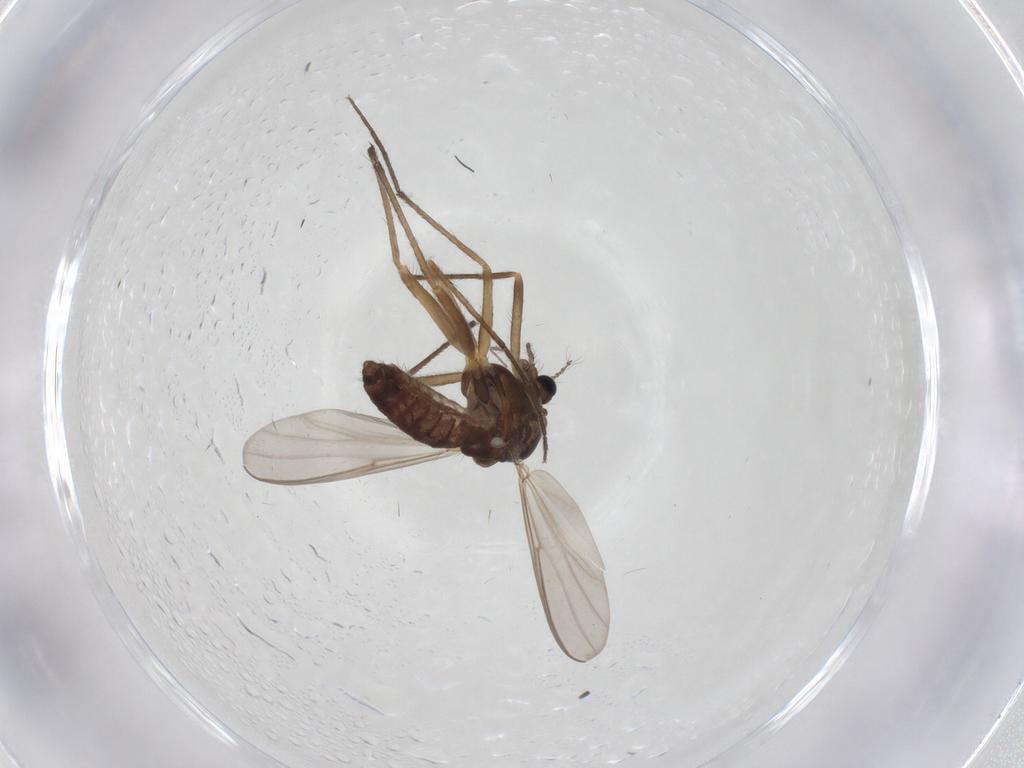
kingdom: Animalia
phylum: Arthropoda
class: Insecta
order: Diptera
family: Chironomidae
